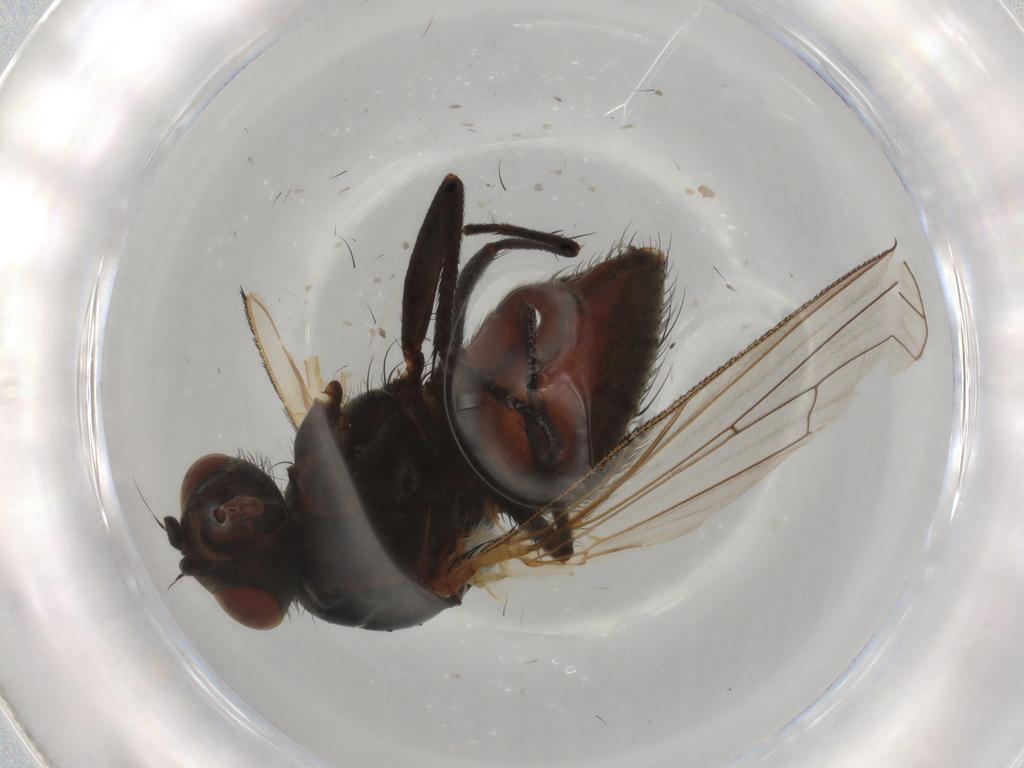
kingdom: Animalia
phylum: Arthropoda
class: Insecta
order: Diptera
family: Sciaridae
